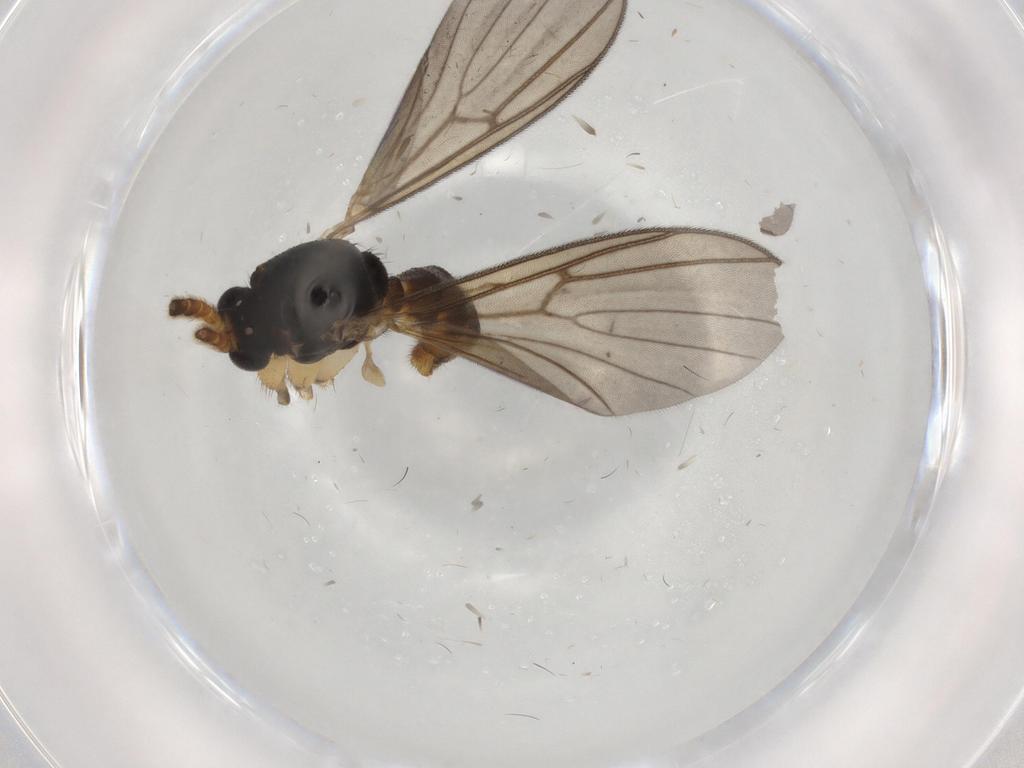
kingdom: Animalia
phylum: Arthropoda
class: Insecta
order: Diptera
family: Cecidomyiidae
